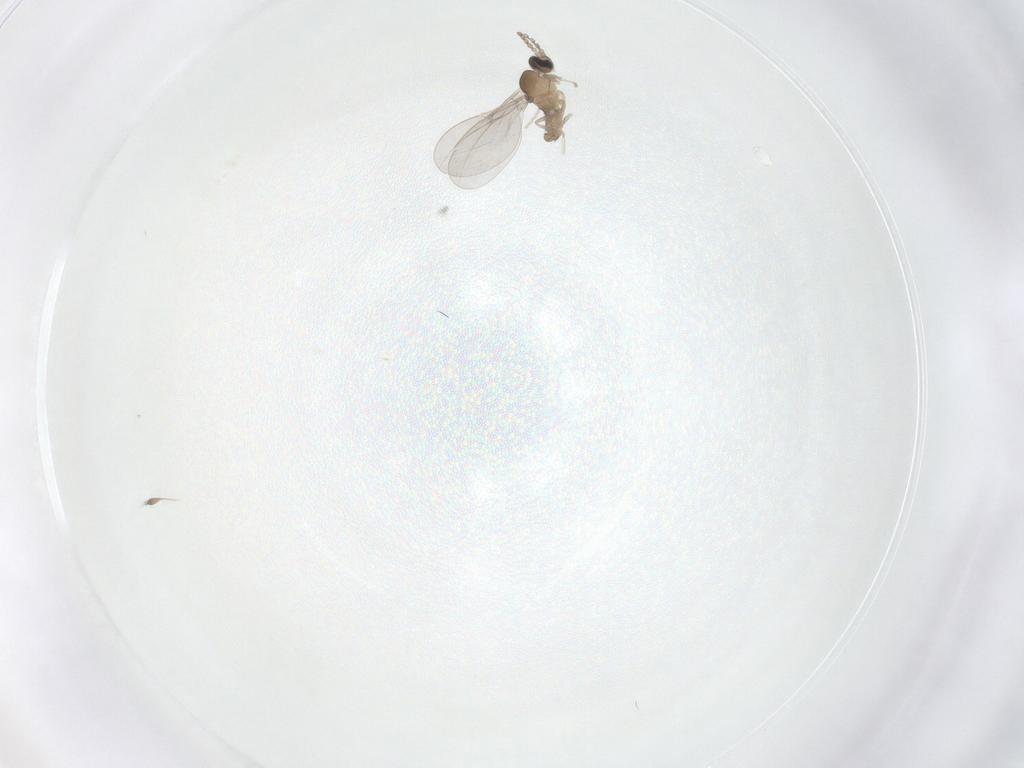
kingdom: Animalia
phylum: Arthropoda
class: Insecta
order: Diptera
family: Cecidomyiidae
